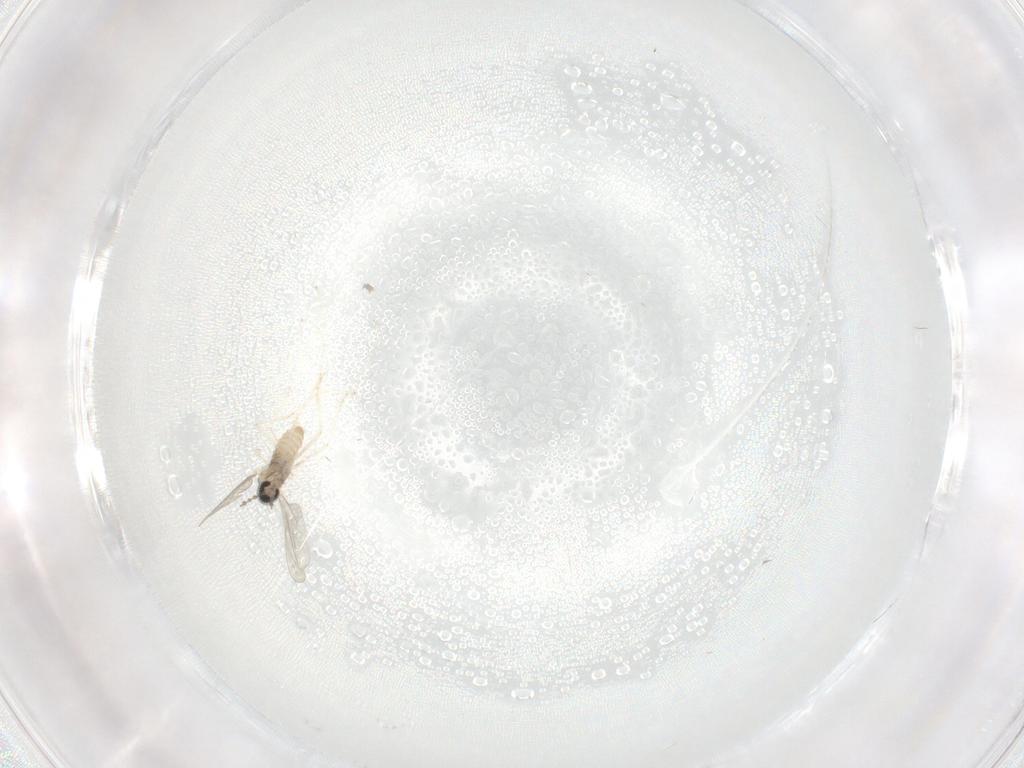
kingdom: Animalia
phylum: Arthropoda
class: Insecta
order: Diptera
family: Cecidomyiidae
